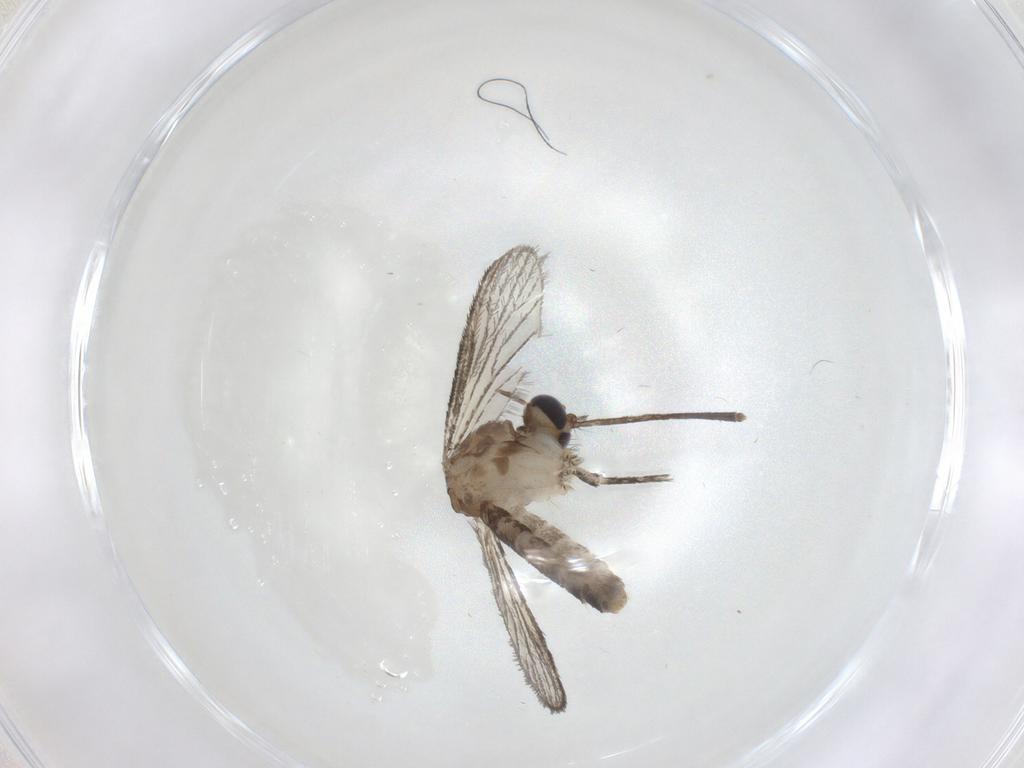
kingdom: Animalia
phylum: Arthropoda
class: Insecta
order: Diptera
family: Culicidae
